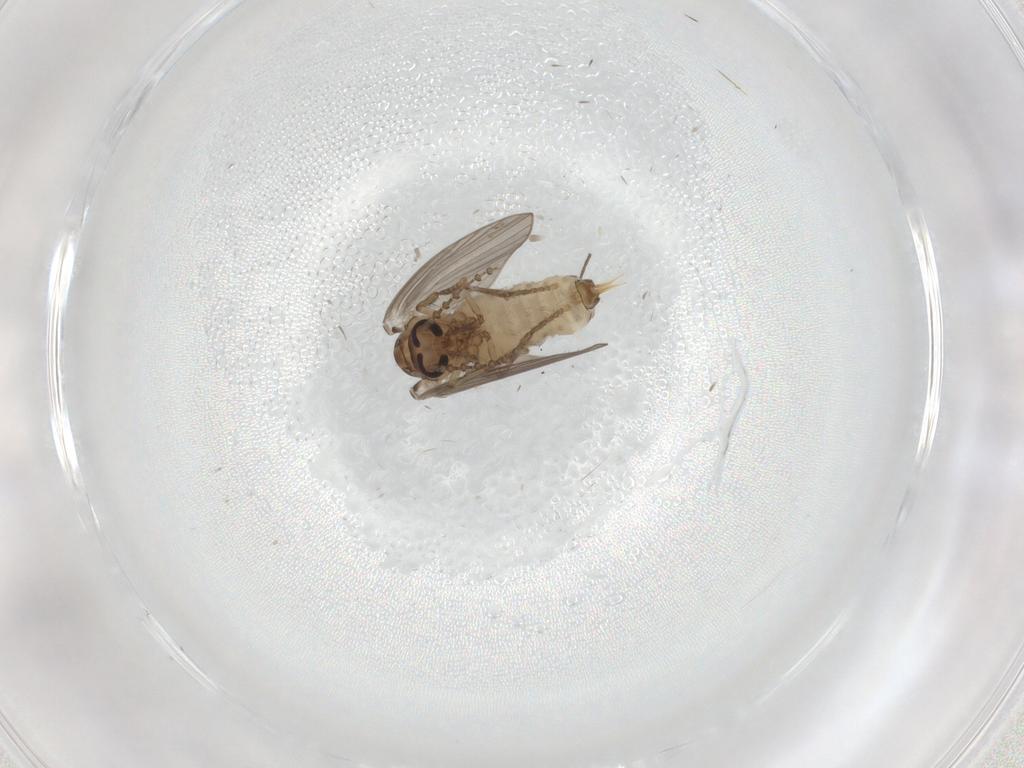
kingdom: Animalia
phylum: Arthropoda
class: Insecta
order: Diptera
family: Psychodidae
